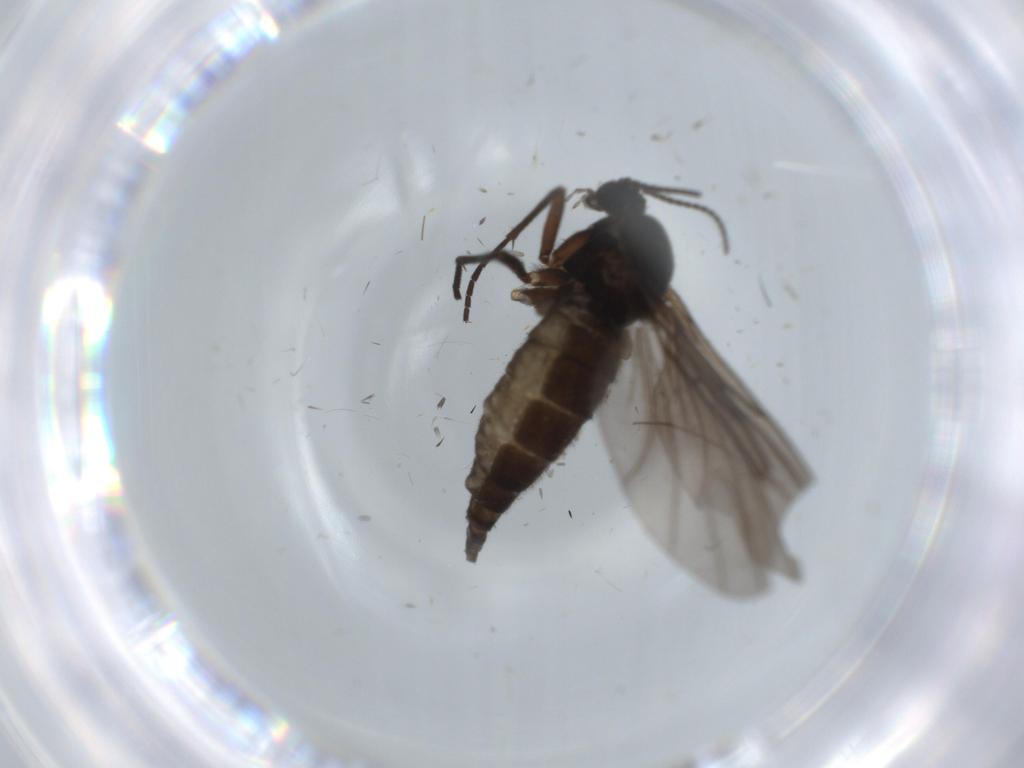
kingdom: Animalia
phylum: Arthropoda
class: Insecta
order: Diptera
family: Sciaridae
